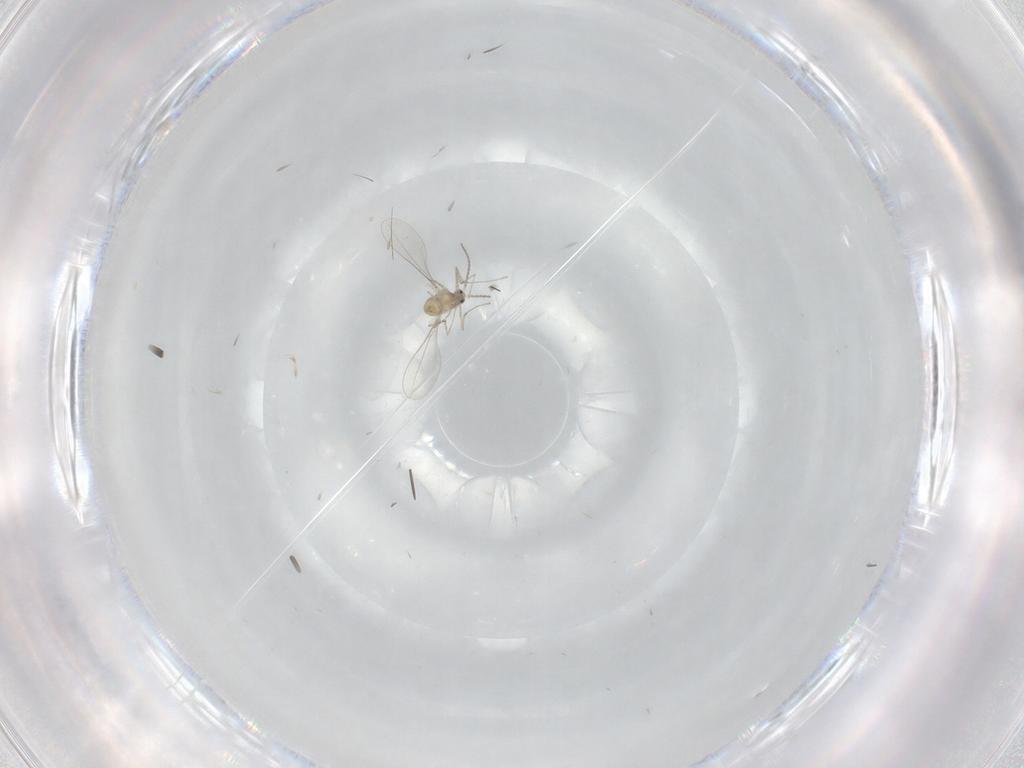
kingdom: Animalia
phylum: Arthropoda
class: Insecta
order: Diptera
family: Cecidomyiidae
